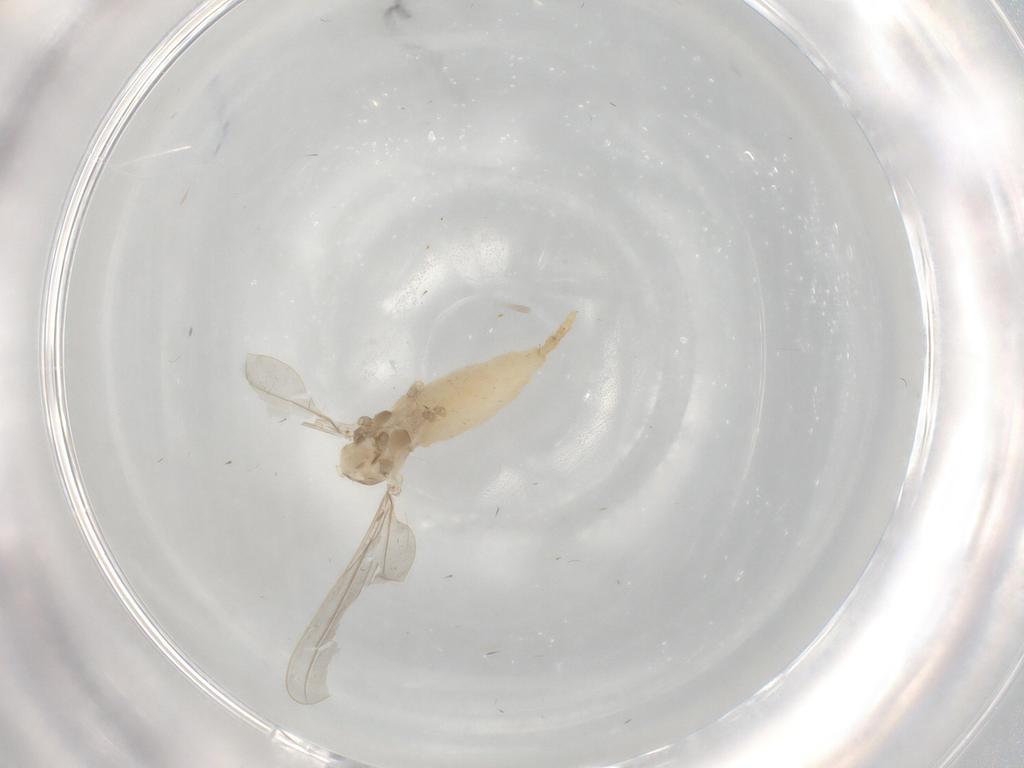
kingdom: Animalia
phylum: Arthropoda
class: Insecta
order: Diptera
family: Cecidomyiidae
